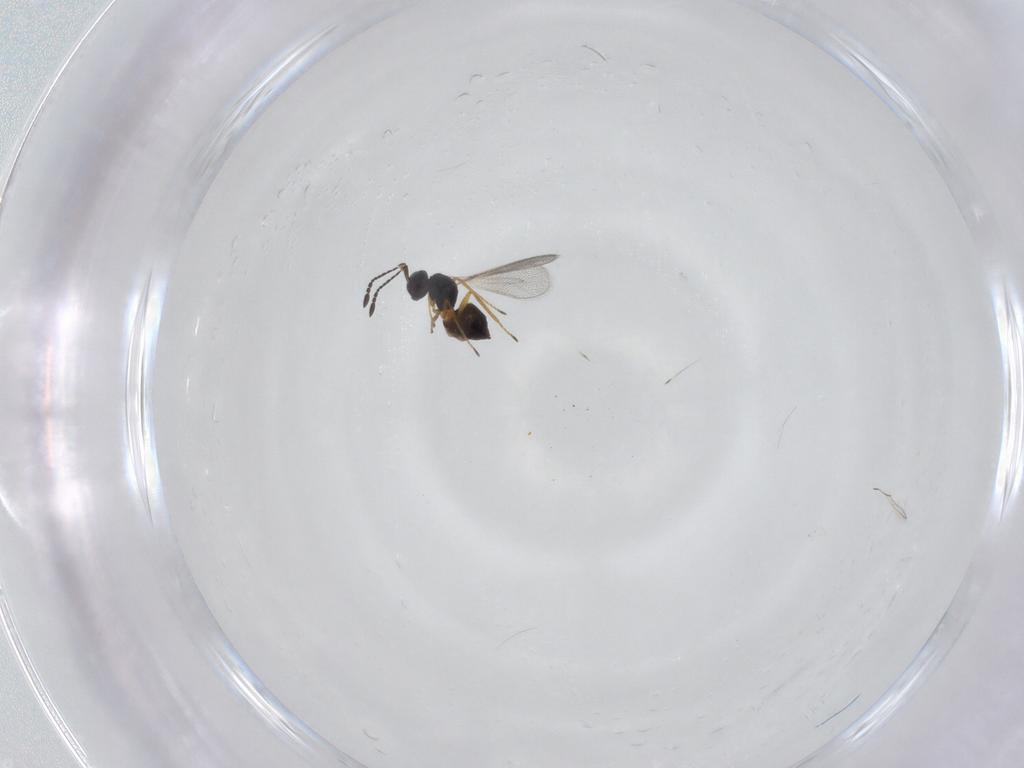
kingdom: Animalia
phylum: Arthropoda
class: Insecta
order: Hymenoptera
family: Mymaridae
